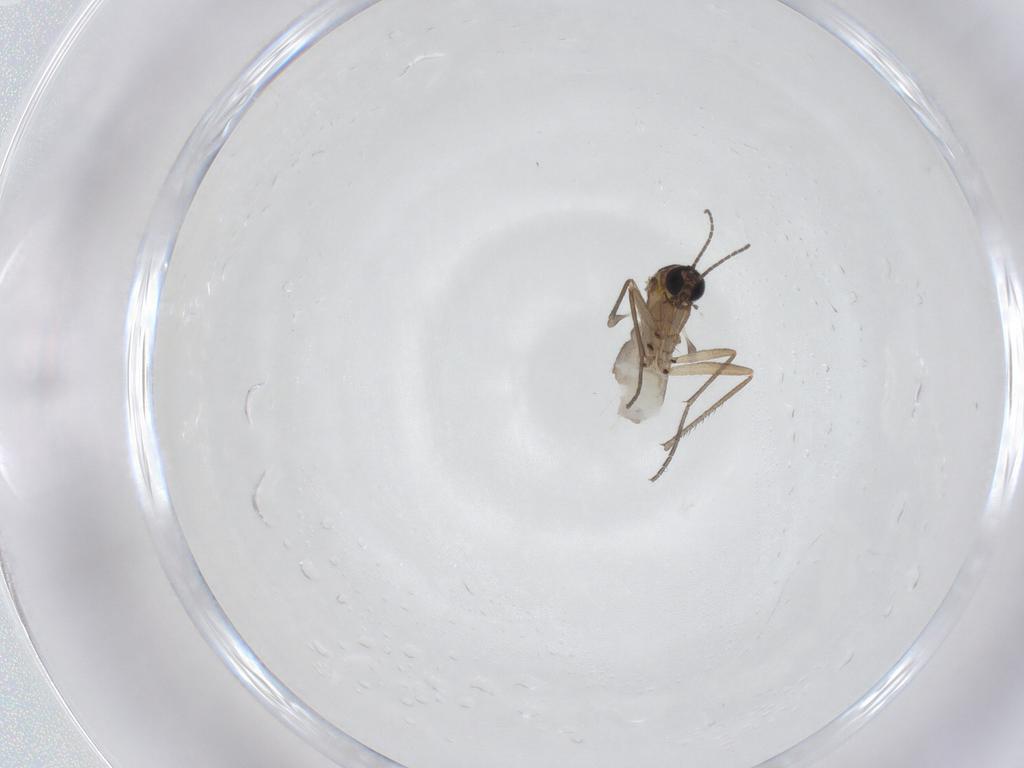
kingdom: Animalia
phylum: Arthropoda
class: Insecta
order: Diptera
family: Sciaridae
